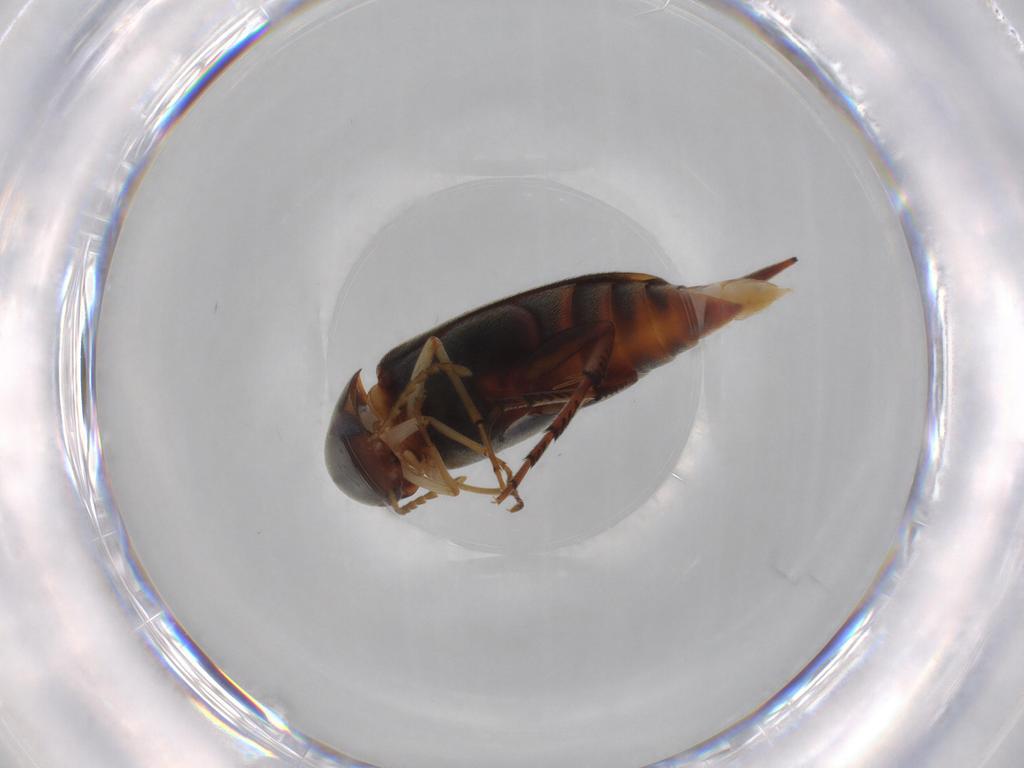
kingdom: Animalia
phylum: Arthropoda
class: Insecta
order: Coleoptera
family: Mordellidae
